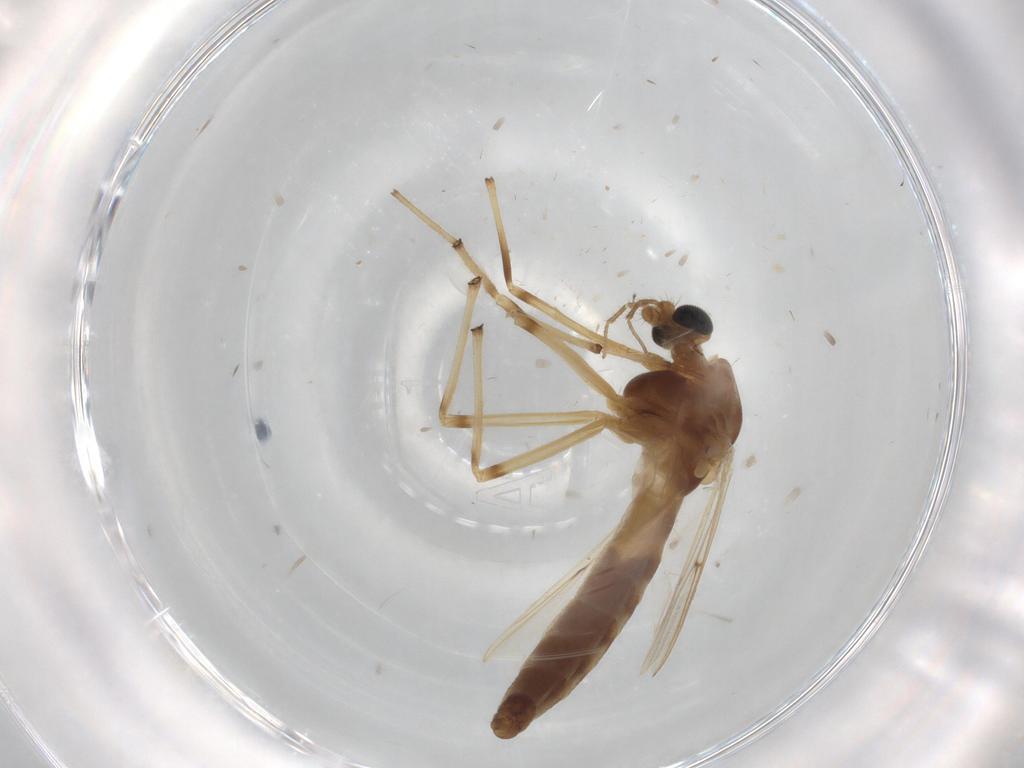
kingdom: Animalia
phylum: Arthropoda
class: Insecta
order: Diptera
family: Chironomidae
